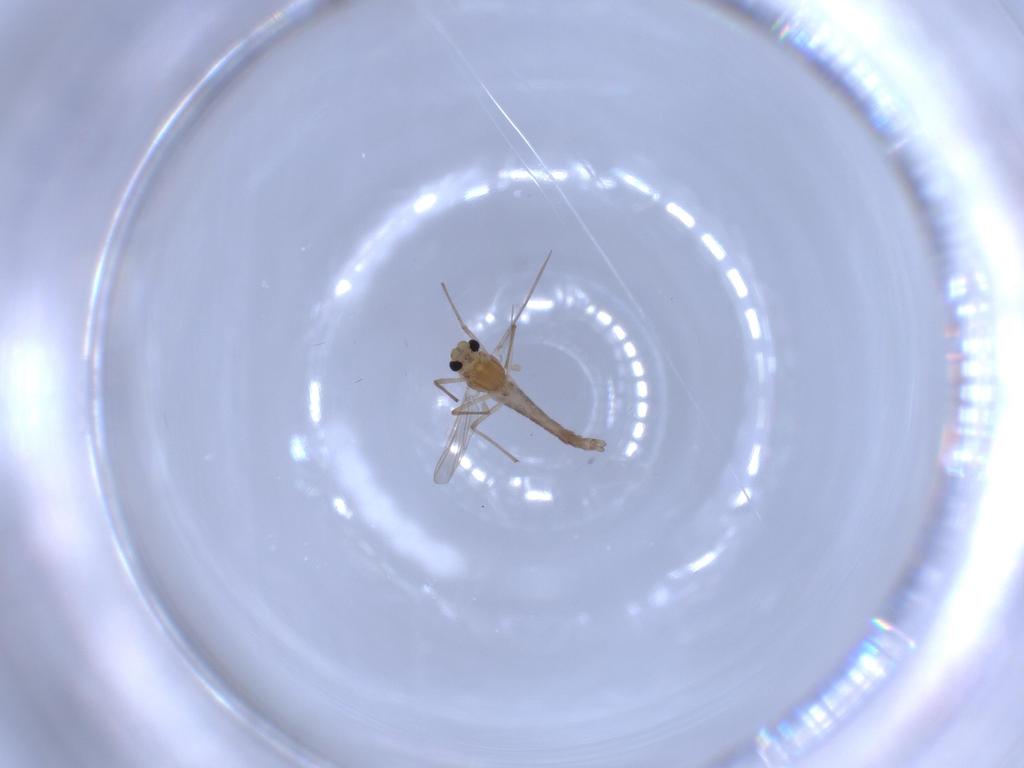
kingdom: Animalia
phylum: Arthropoda
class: Insecta
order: Diptera
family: Chironomidae
